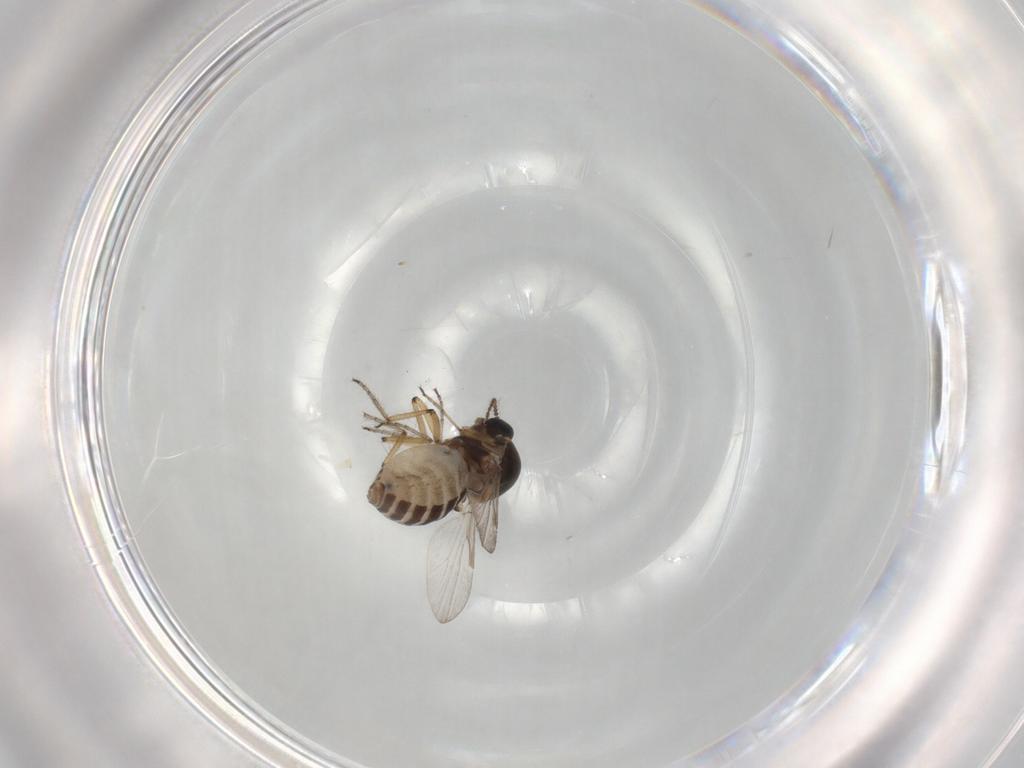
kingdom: Animalia
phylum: Arthropoda
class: Insecta
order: Diptera
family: Ceratopogonidae
